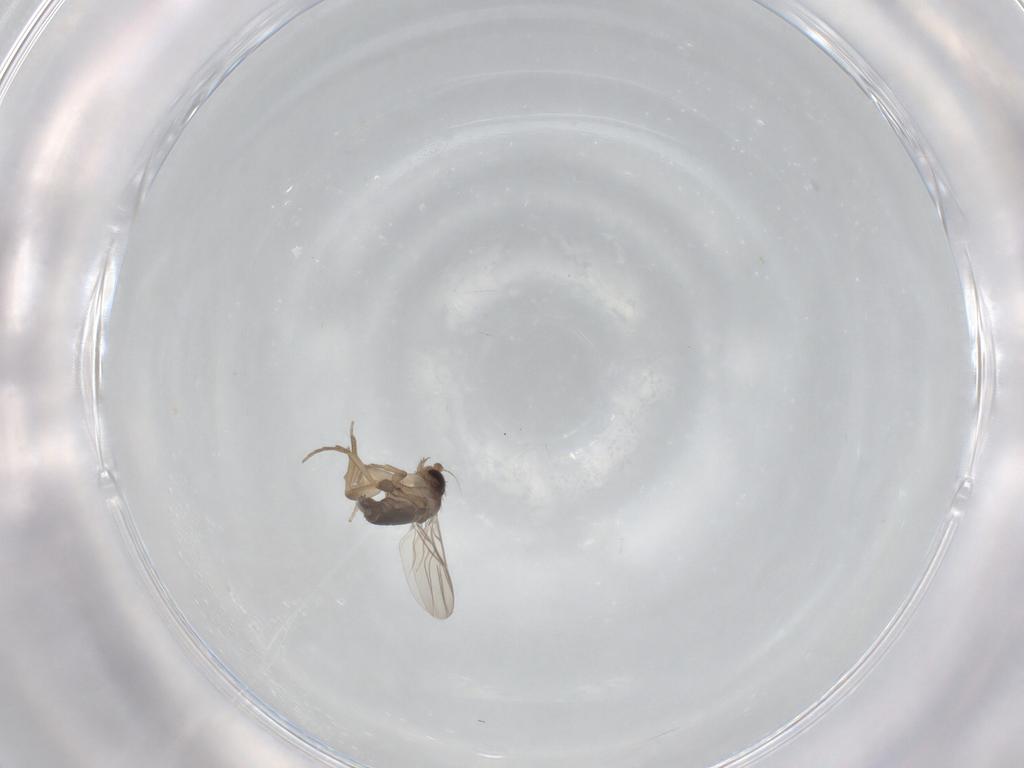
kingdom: Animalia
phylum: Arthropoda
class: Insecta
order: Diptera
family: Phoridae
